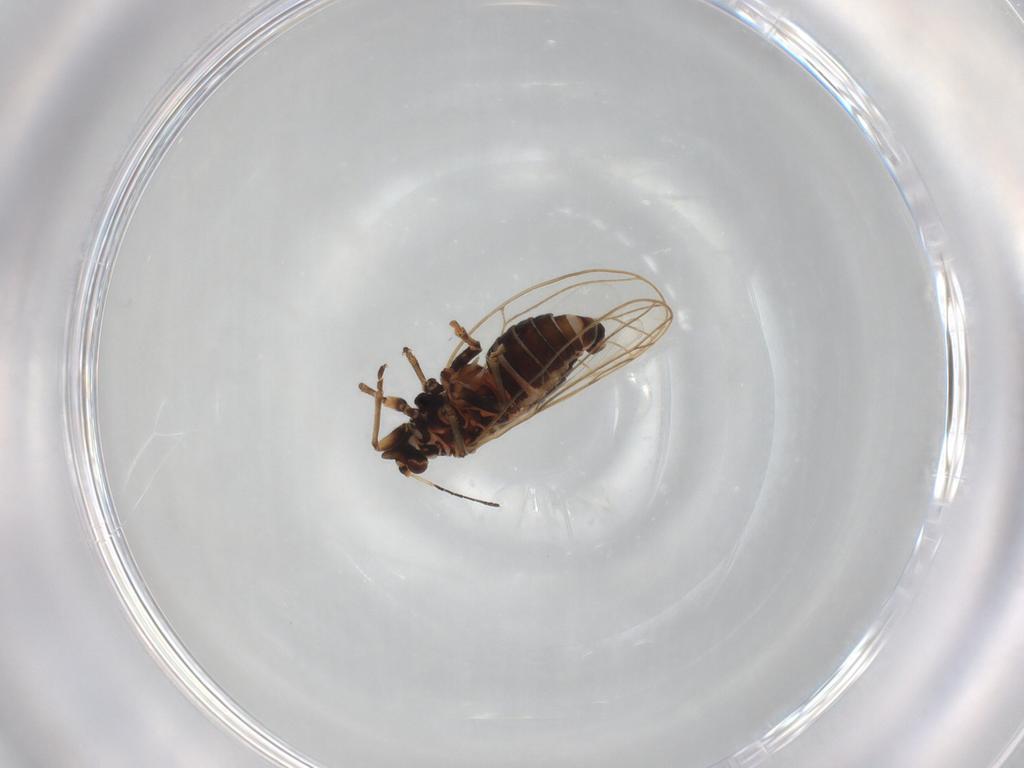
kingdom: Animalia
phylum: Arthropoda
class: Insecta
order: Hemiptera
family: Triozidae
